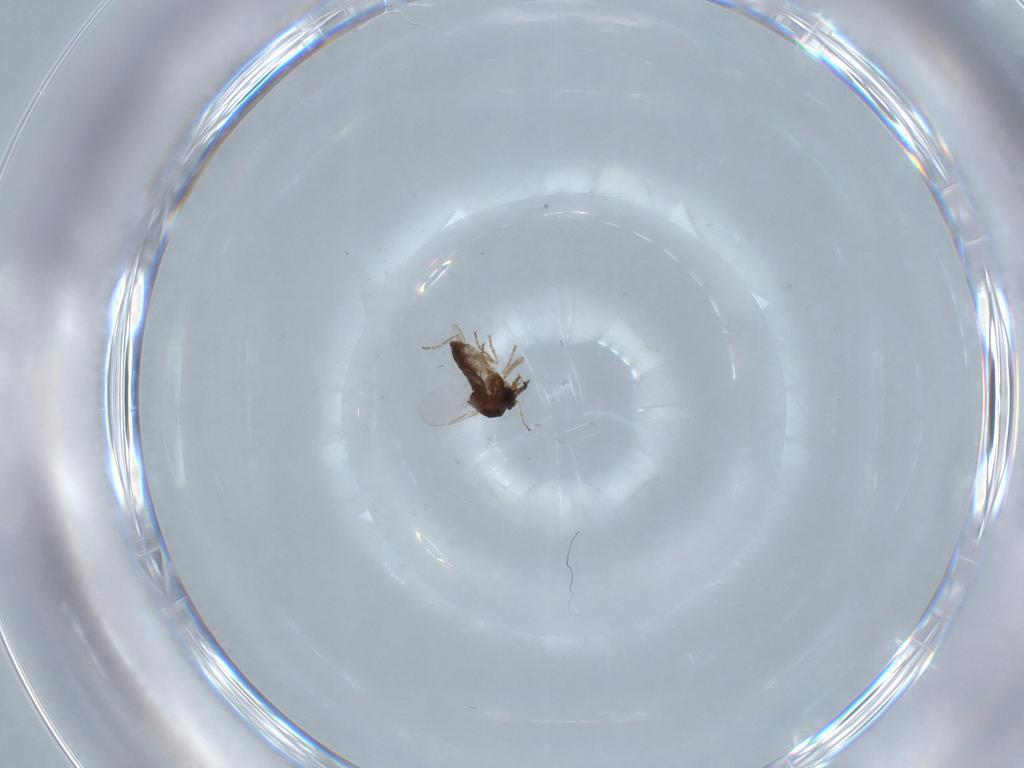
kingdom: Animalia
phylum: Arthropoda
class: Insecta
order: Diptera
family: Ceratopogonidae
